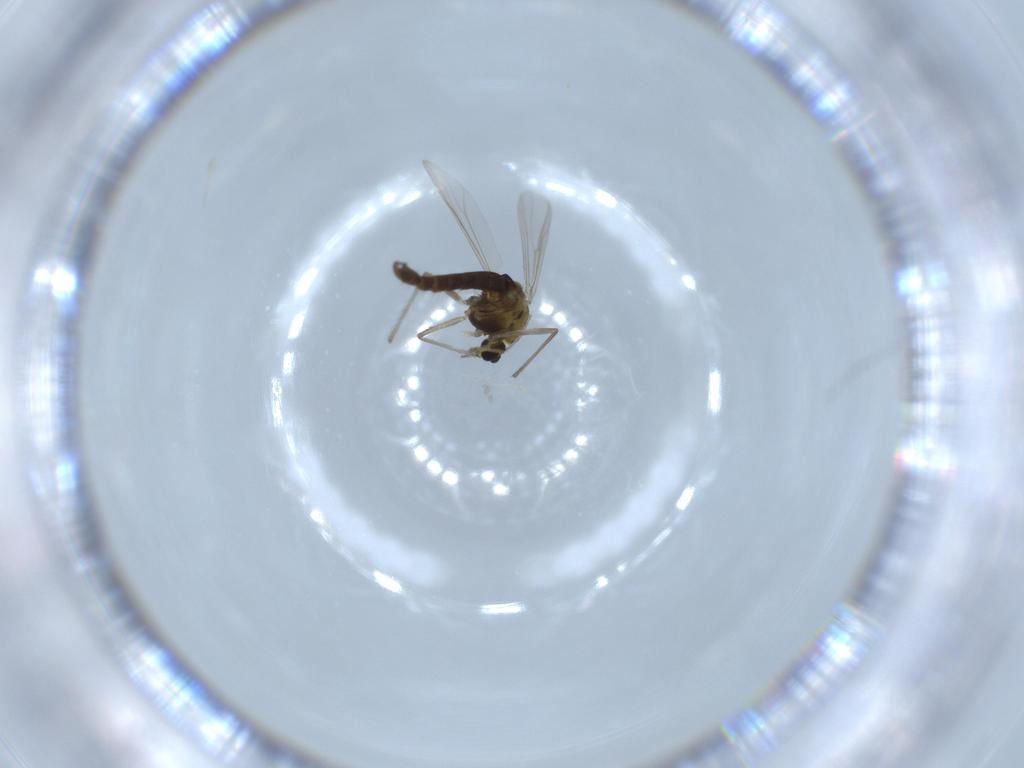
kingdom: Animalia
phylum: Arthropoda
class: Insecta
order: Diptera
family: Chironomidae
